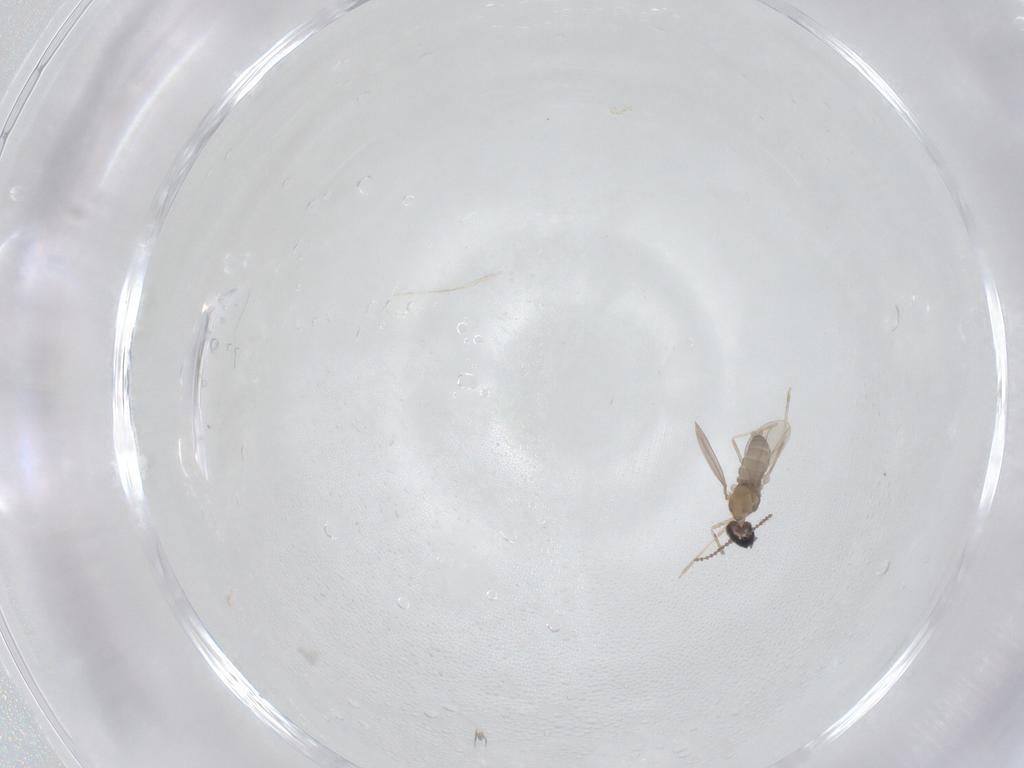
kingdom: Animalia
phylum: Arthropoda
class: Insecta
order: Diptera
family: Cecidomyiidae
